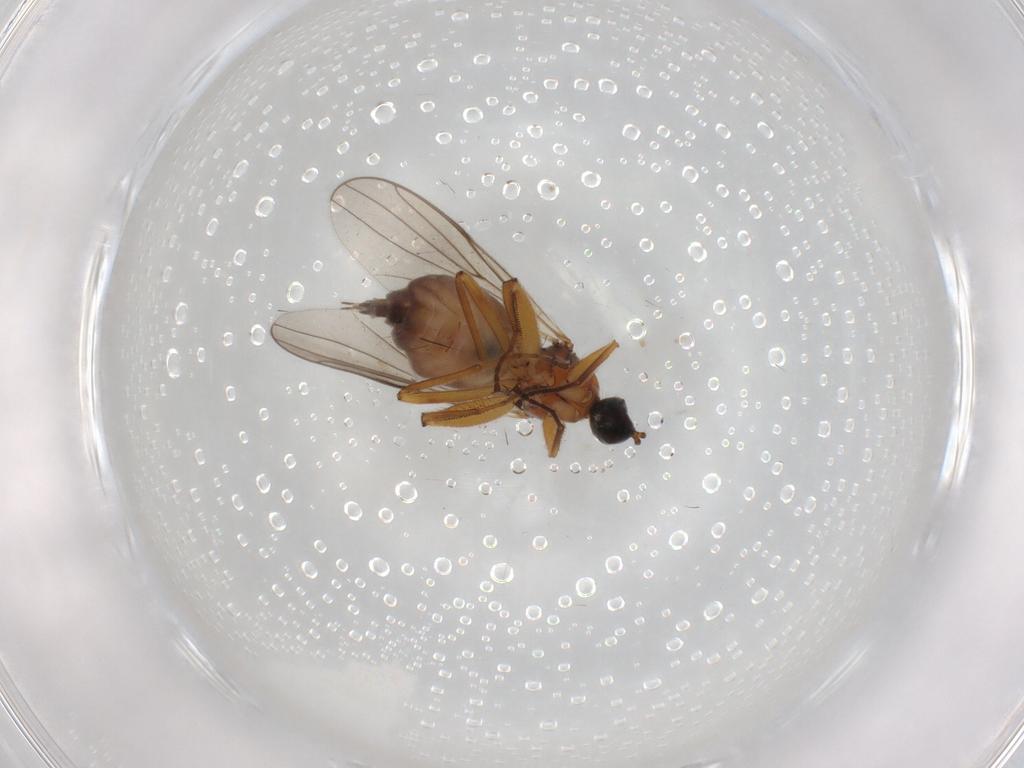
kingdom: Animalia
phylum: Arthropoda
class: Insecta
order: Diptera
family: Hybotidae
